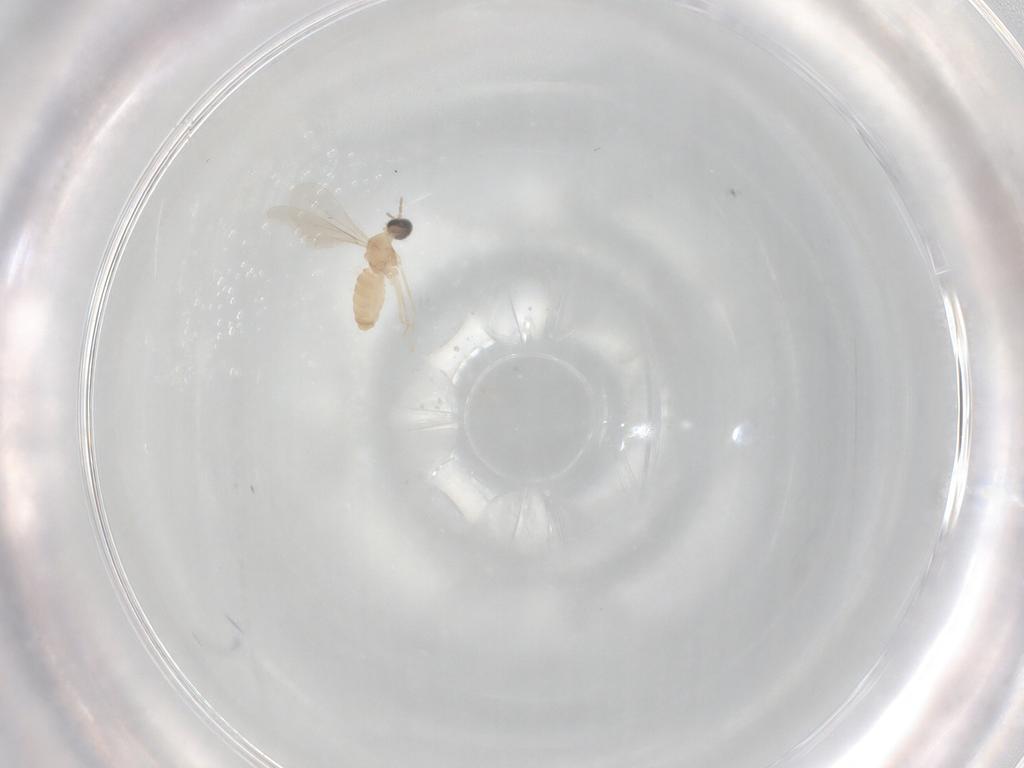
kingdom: Animalia
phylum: Arthropoda
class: Insecta
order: Diptera
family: Cecidomyiidae
